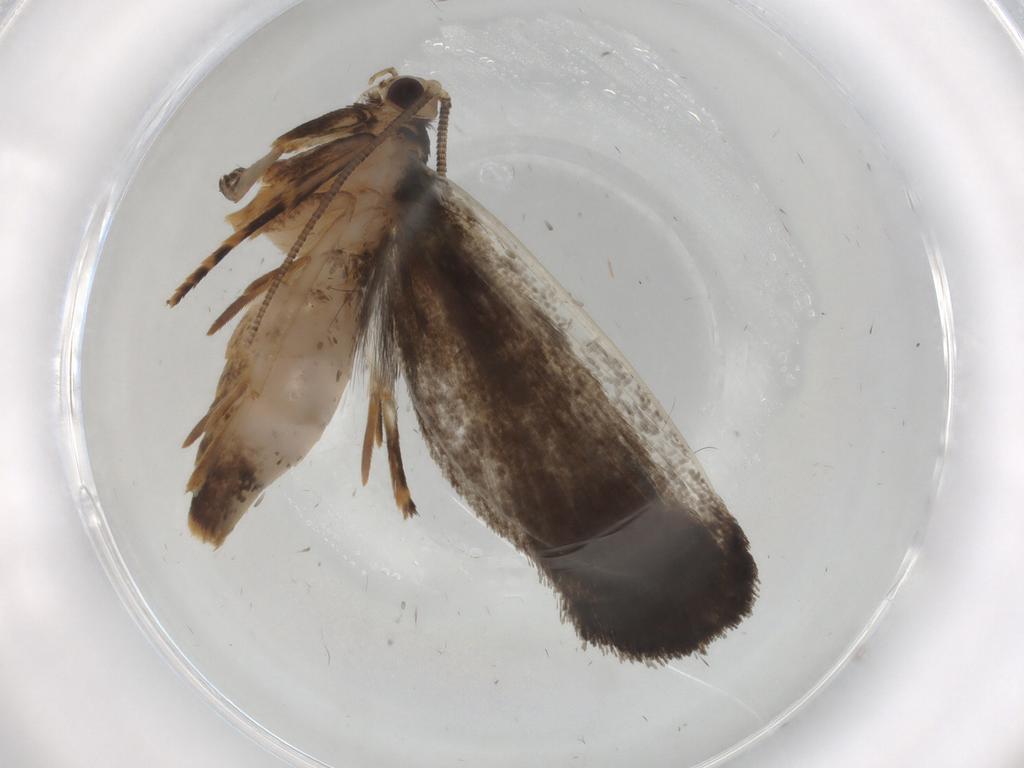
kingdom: Animalia
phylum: Arthropoda
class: Insecta
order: Lepidoptera
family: Tineidae
